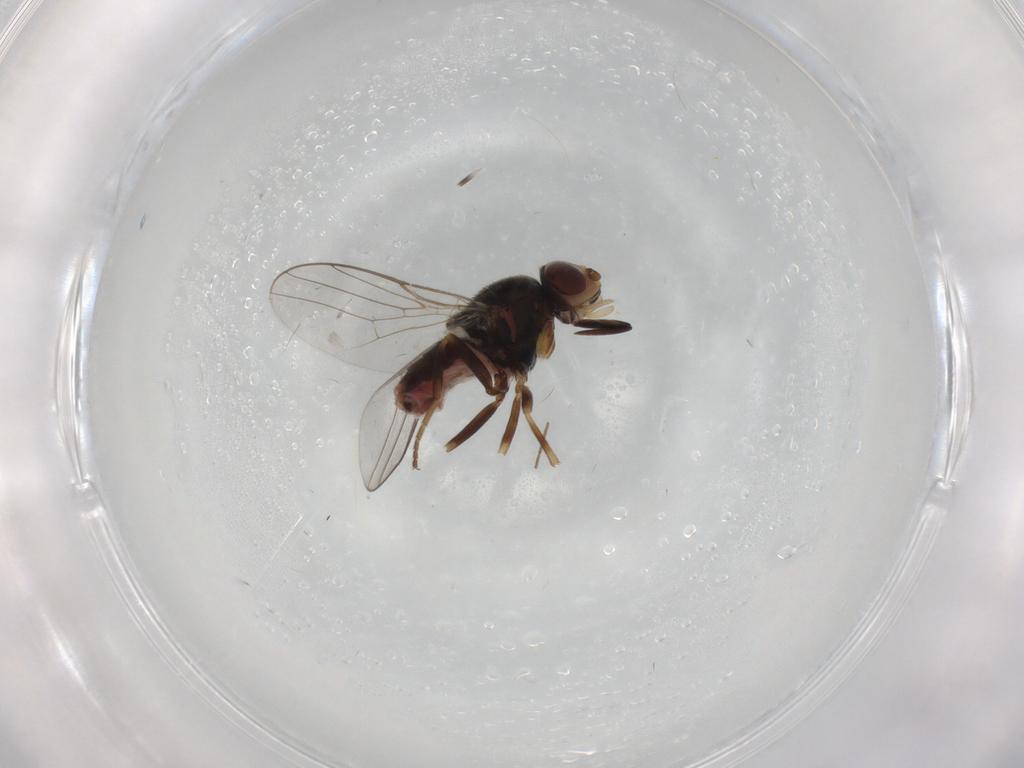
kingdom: Animalia
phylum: Arthropoda
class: Insecta
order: Diptera
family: Chloropidae
